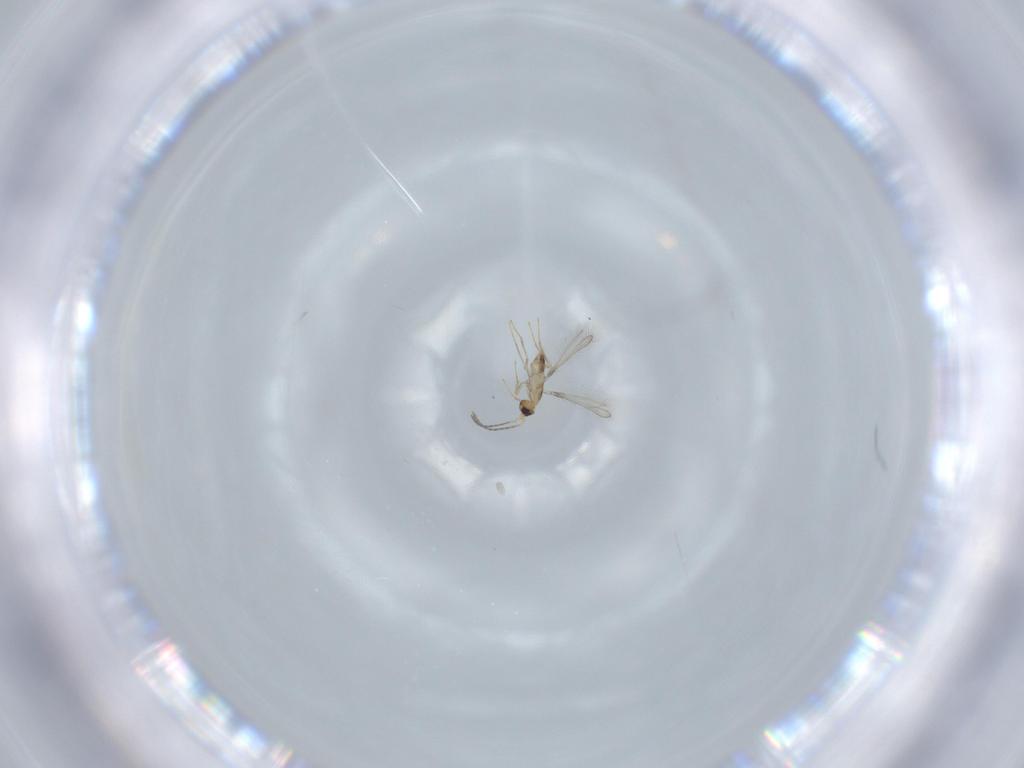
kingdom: Animalia
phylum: Arthropoda
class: Insecta
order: Hymenoptera
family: Mymaridae
